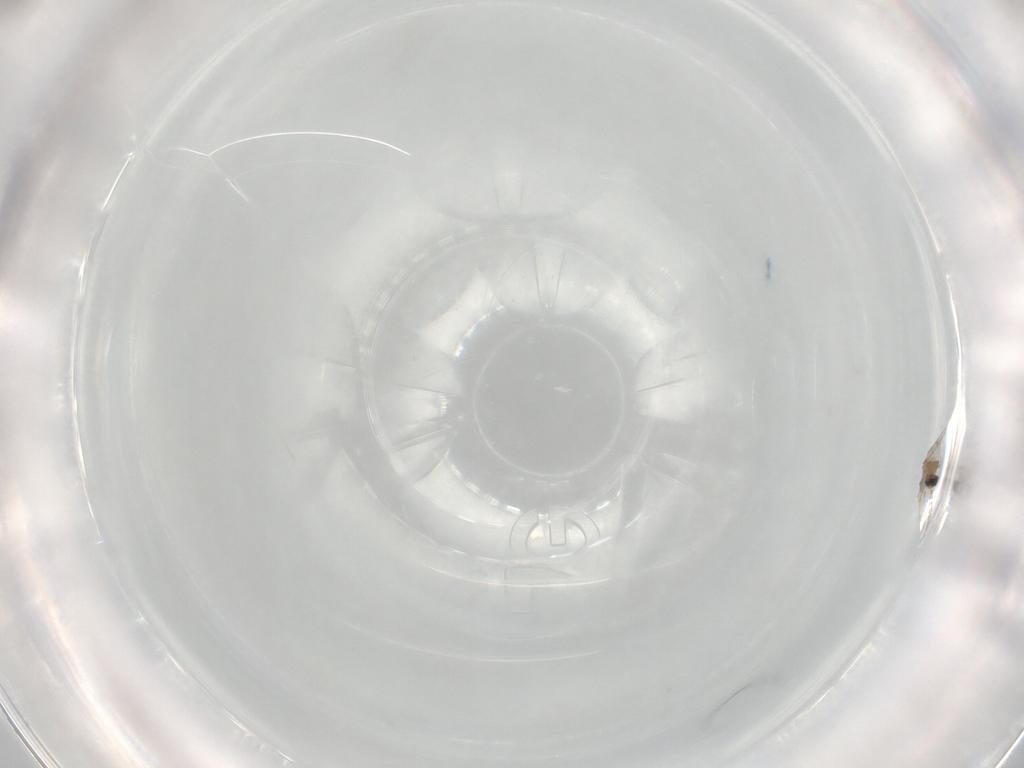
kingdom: Animalia
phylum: Arthropoda
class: Insecta
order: Diptera
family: Cecidomyiidae
